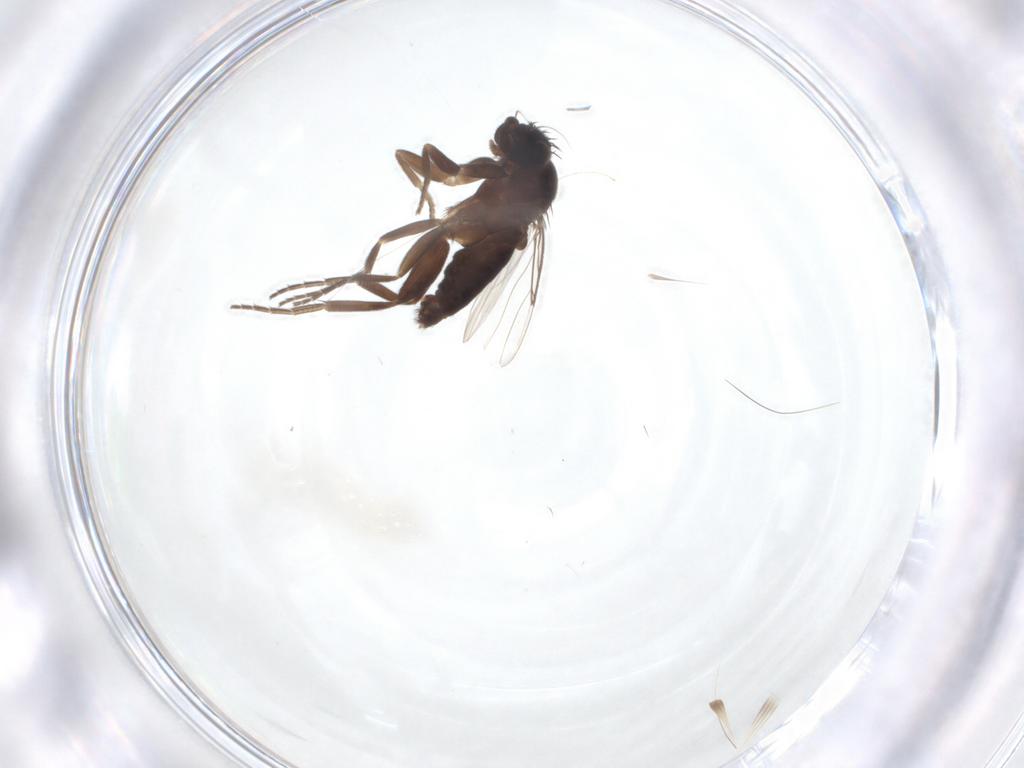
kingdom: Animalia
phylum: Arthropoda
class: Insecta
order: Diptera
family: Phoridae
